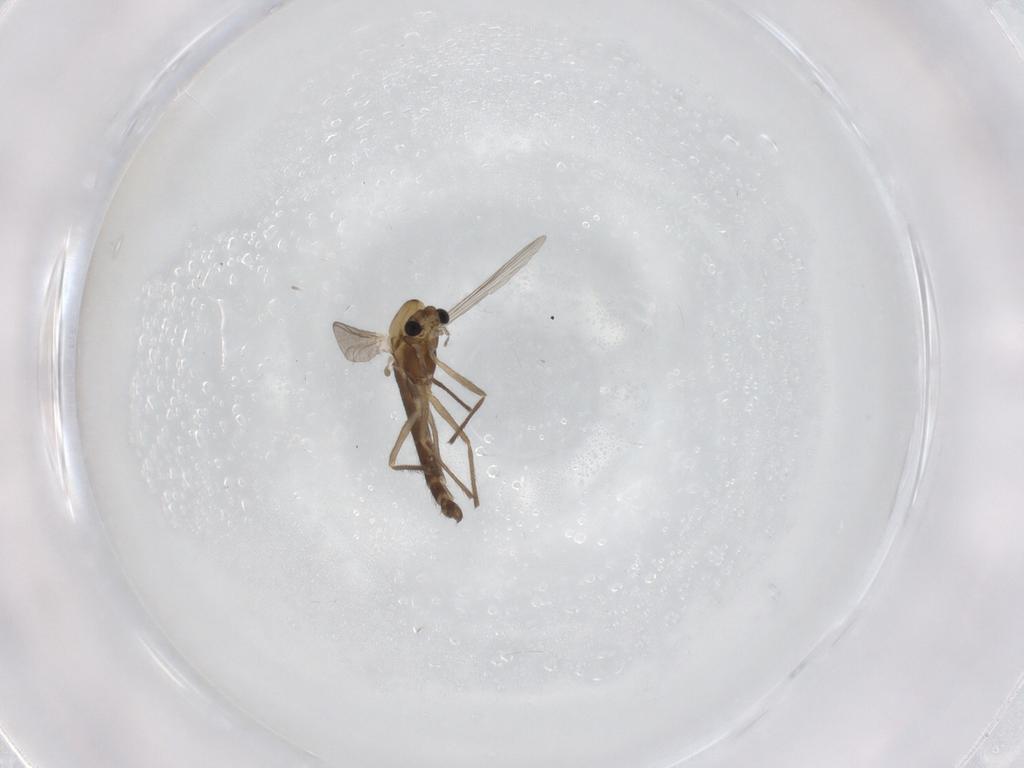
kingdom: Animalia
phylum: Arthropoda
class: Insecta
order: Diptera
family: Chironomidae
